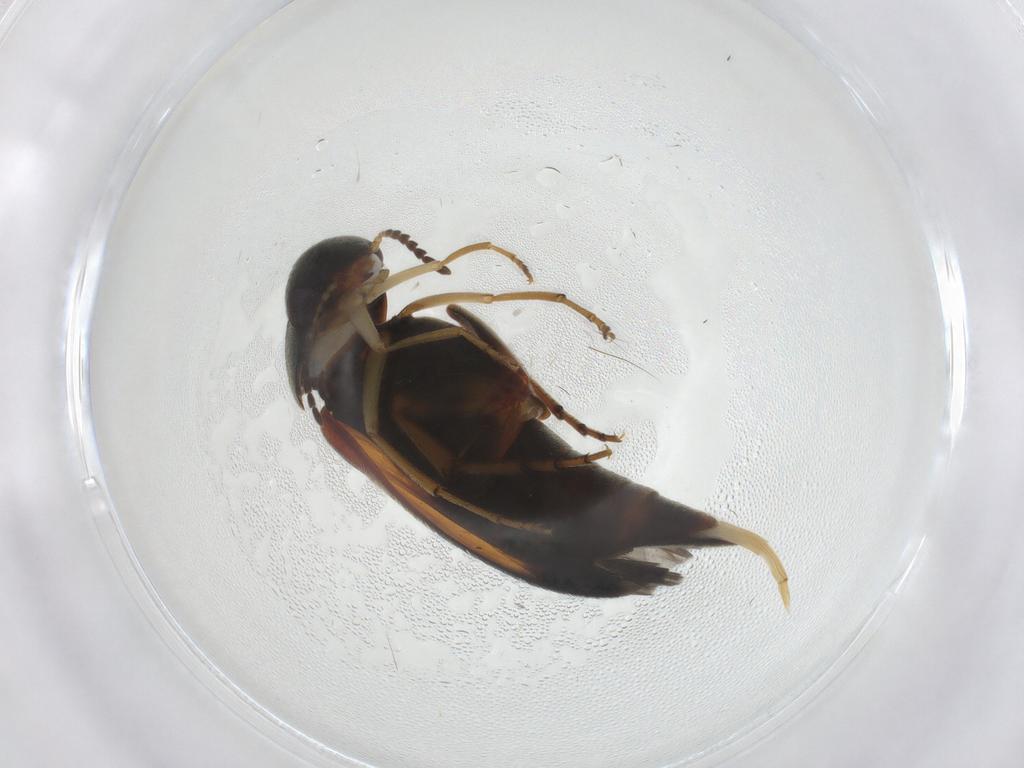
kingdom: Animalia
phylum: Arthropoda
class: Insecta
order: Coleoptera
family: Mordellidae
